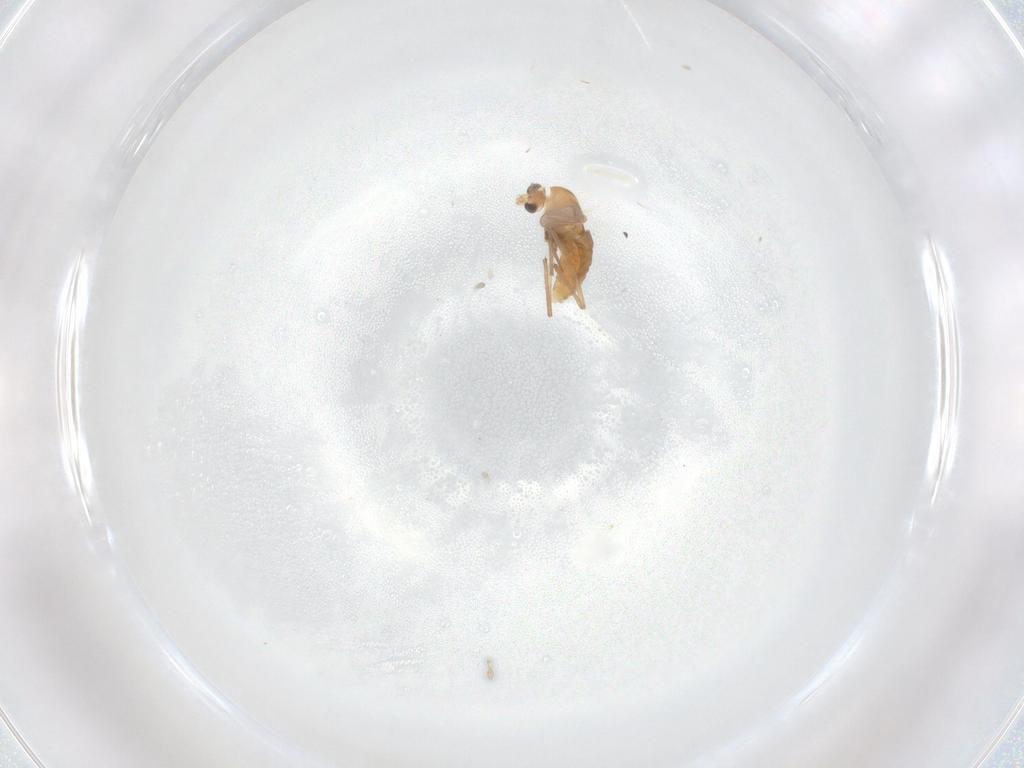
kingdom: Animalia
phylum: Arthropoda
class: Insecta
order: Diptera
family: Chironomidae
